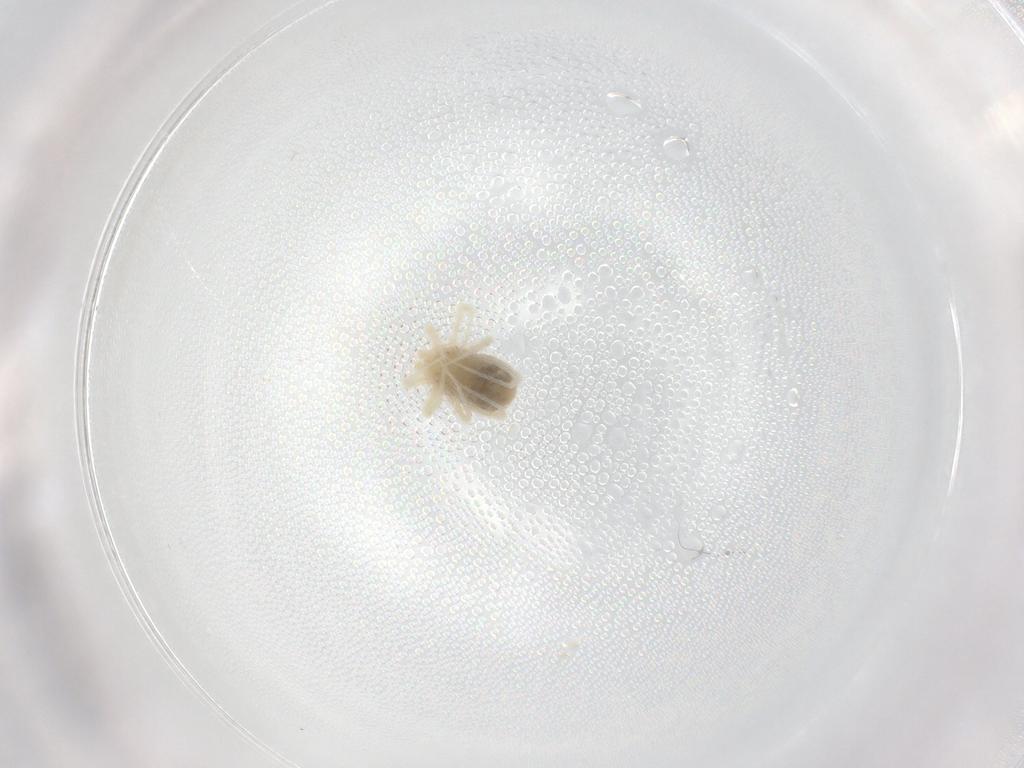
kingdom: Animalia
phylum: Arthropoda
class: Arachnida
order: Trombidiformes
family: Anystidae
